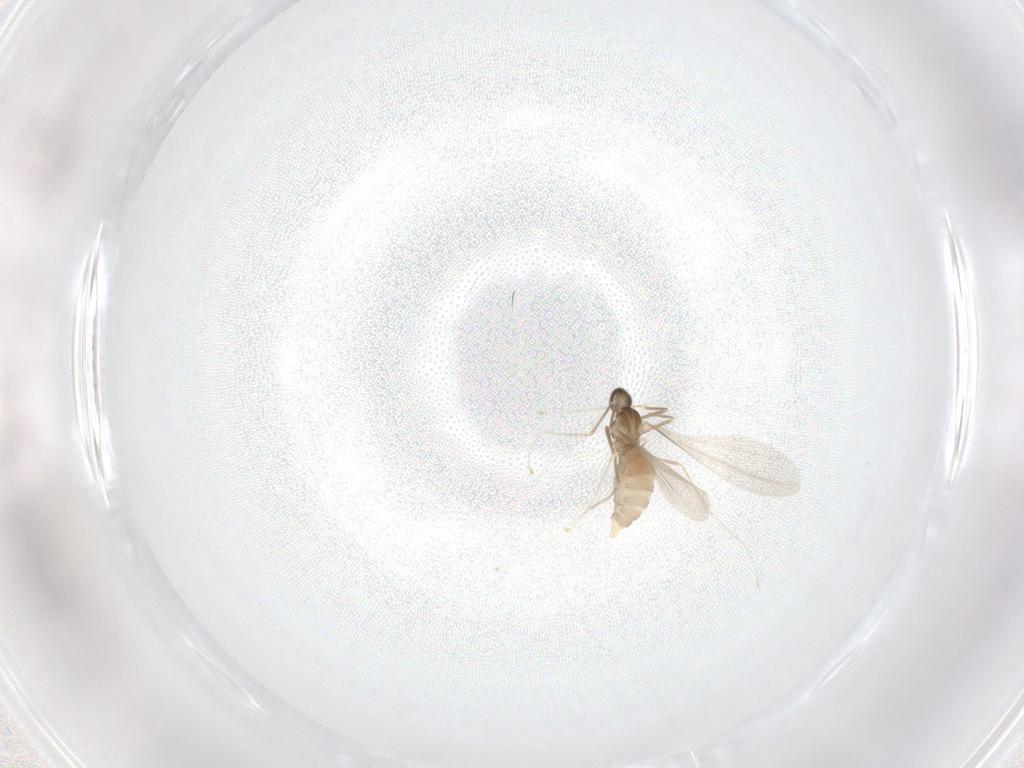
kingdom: Animalia
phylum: Arthropoda
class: Insecta
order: Diptera
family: Cecidomyiidae
